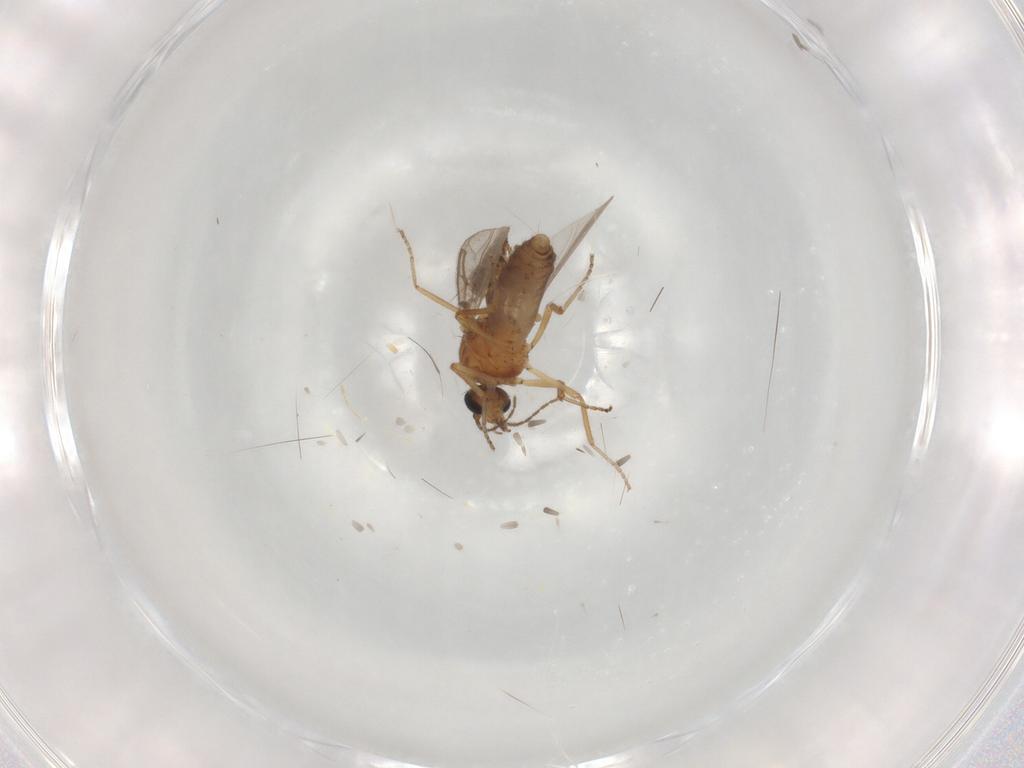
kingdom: Animalia
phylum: Arthropoda
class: Insecta
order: Diptera
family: Ceratopogonidae
